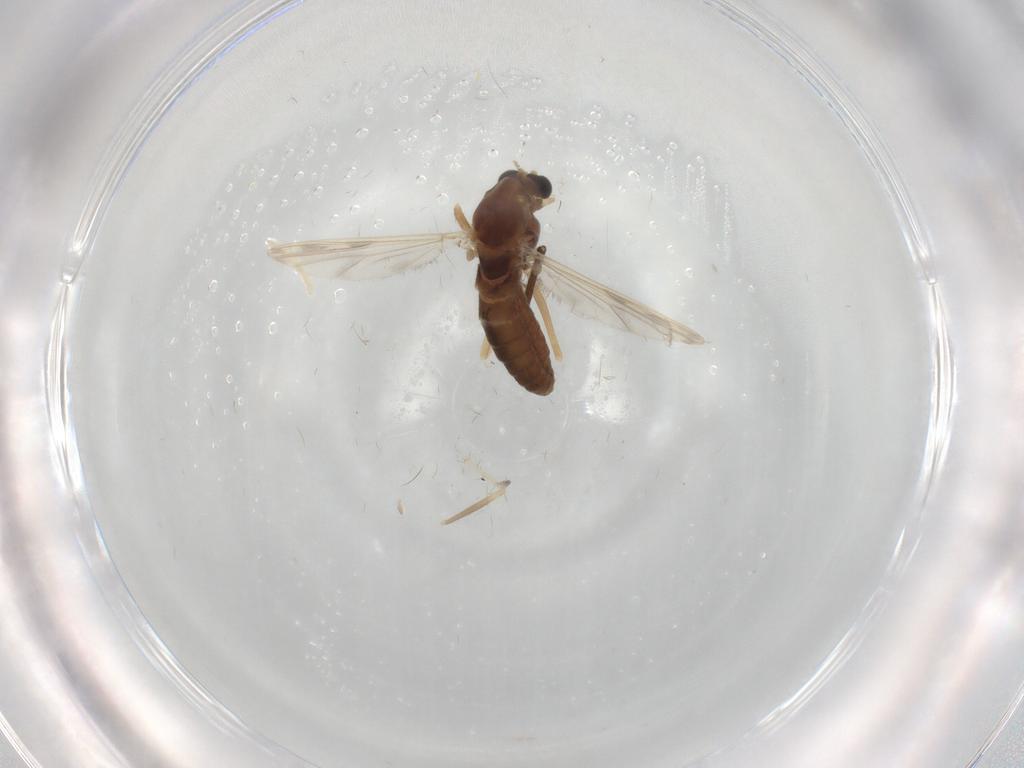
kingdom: Animalia
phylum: Arthropoda
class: Insecta
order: Diptera
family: Chironomidae
